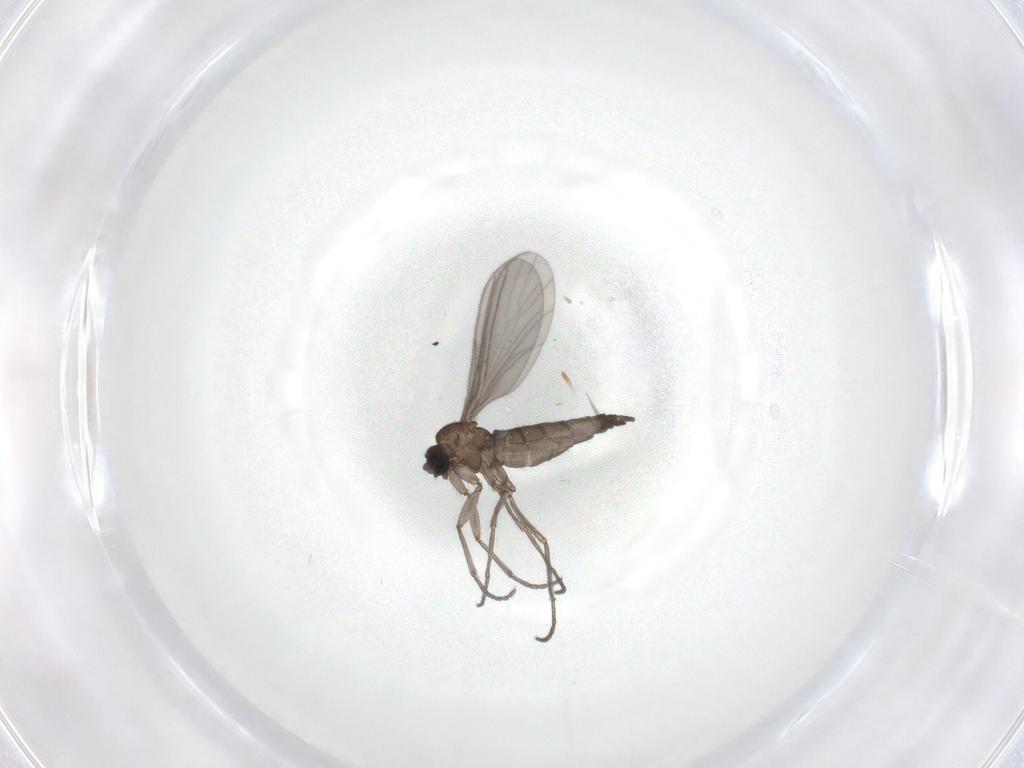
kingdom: Animalia
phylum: Arthropoda
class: Insecta
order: Diptera
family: Sciaridae
